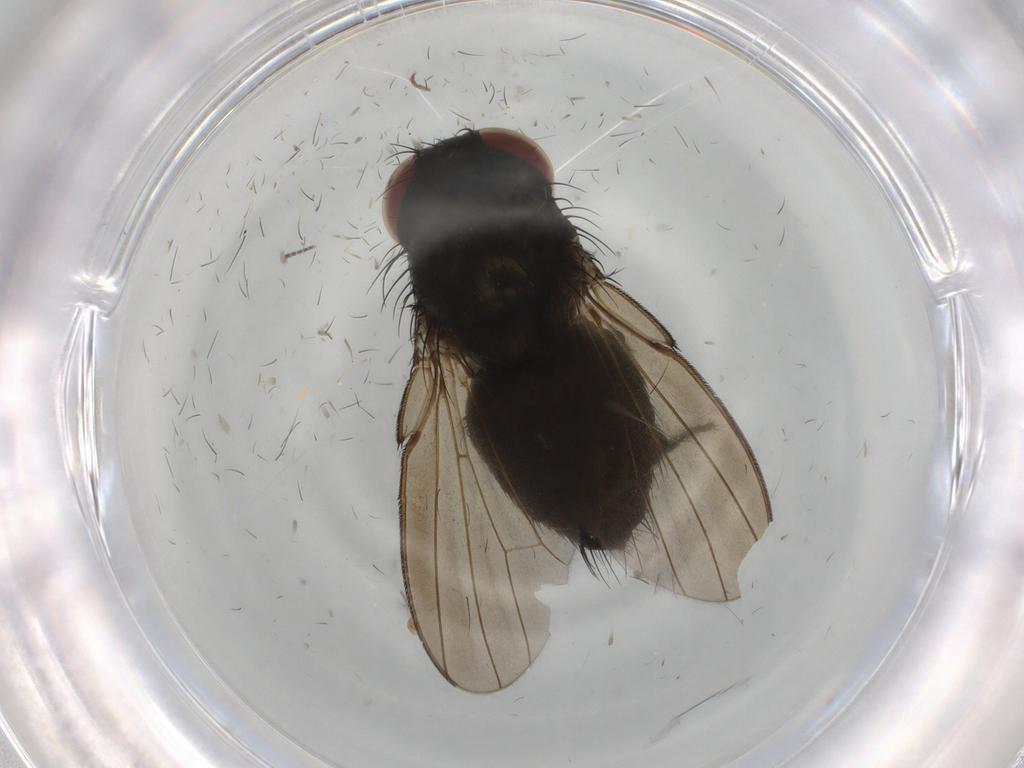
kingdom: Animalia
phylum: Arthropoda
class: Insecta
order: Diptera
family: Milichiidae
